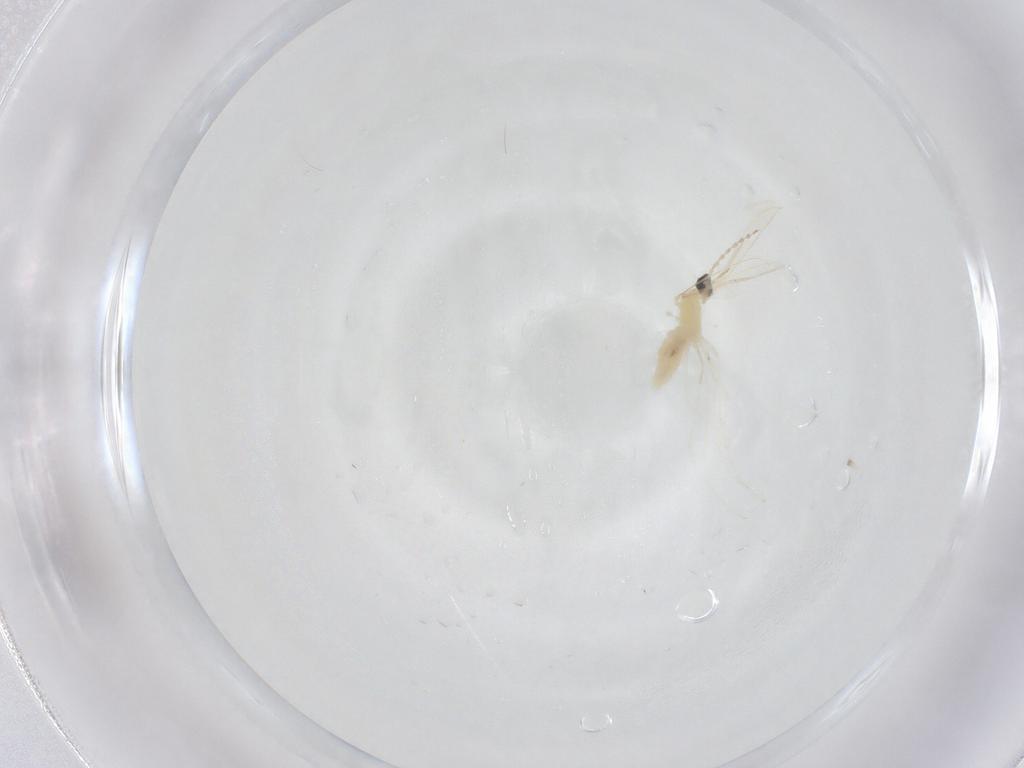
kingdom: Animalia
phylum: Arthropoda
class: Insecta
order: Diptera
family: Cecidomyiidae
